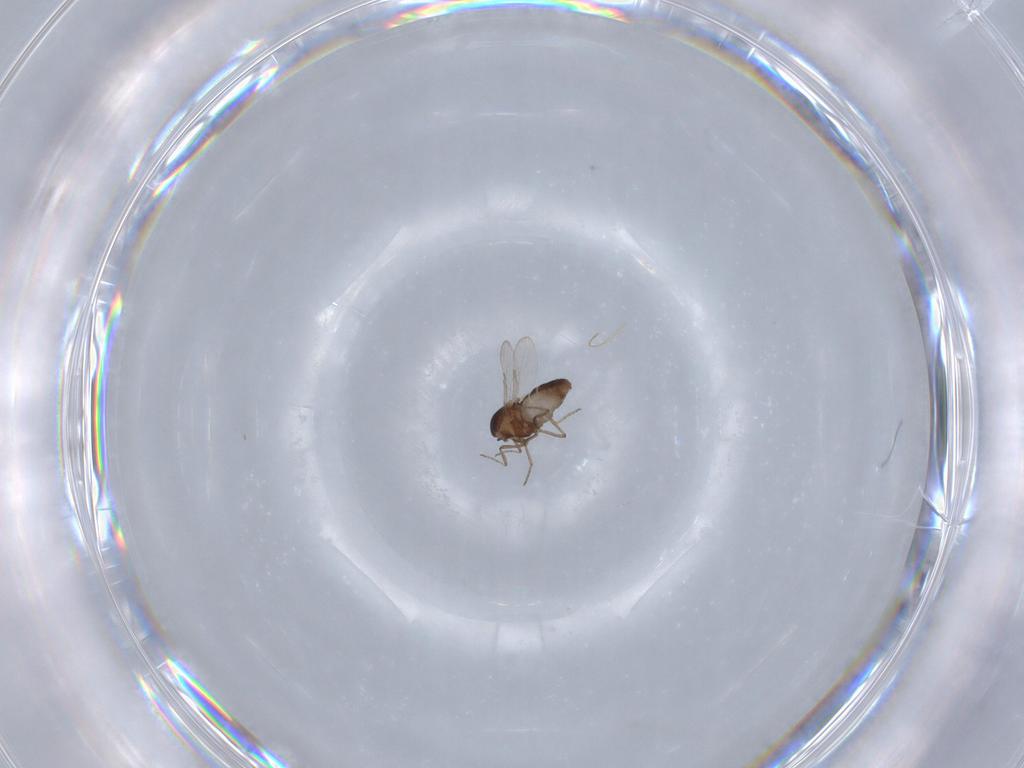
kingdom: Animalia
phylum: Arthropoda
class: Insecta
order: Diptera
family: Ceratopogonidae
